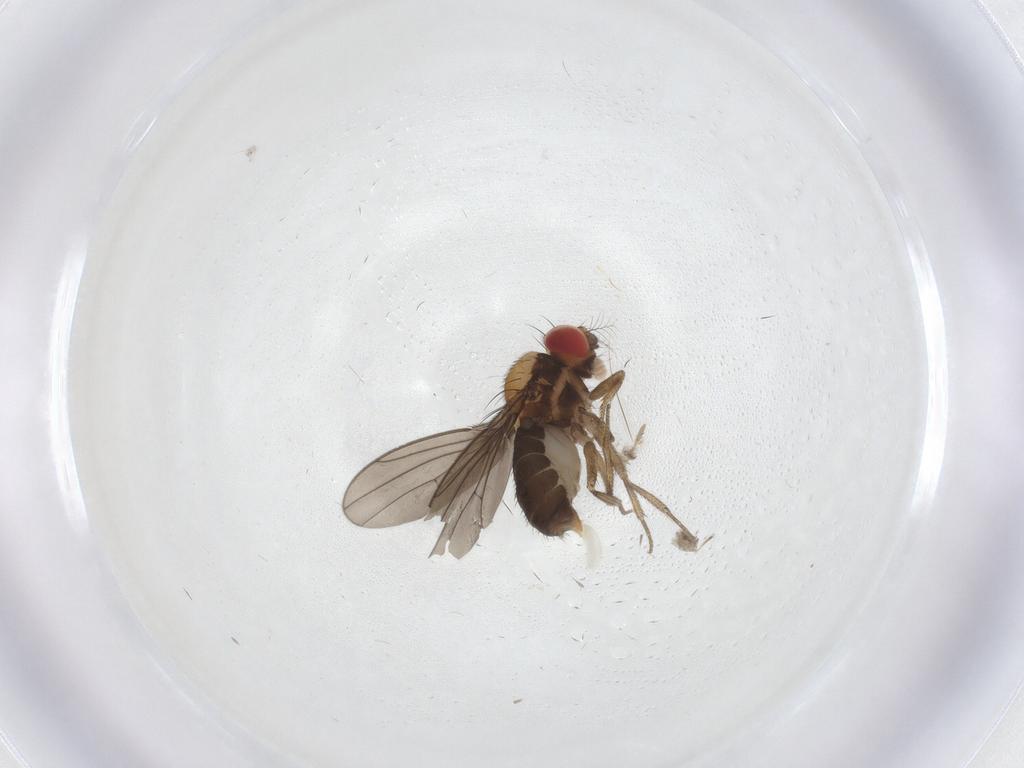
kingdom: Animalia
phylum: Arthropoda
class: Insecta
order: Diptera
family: Drosophilidae
